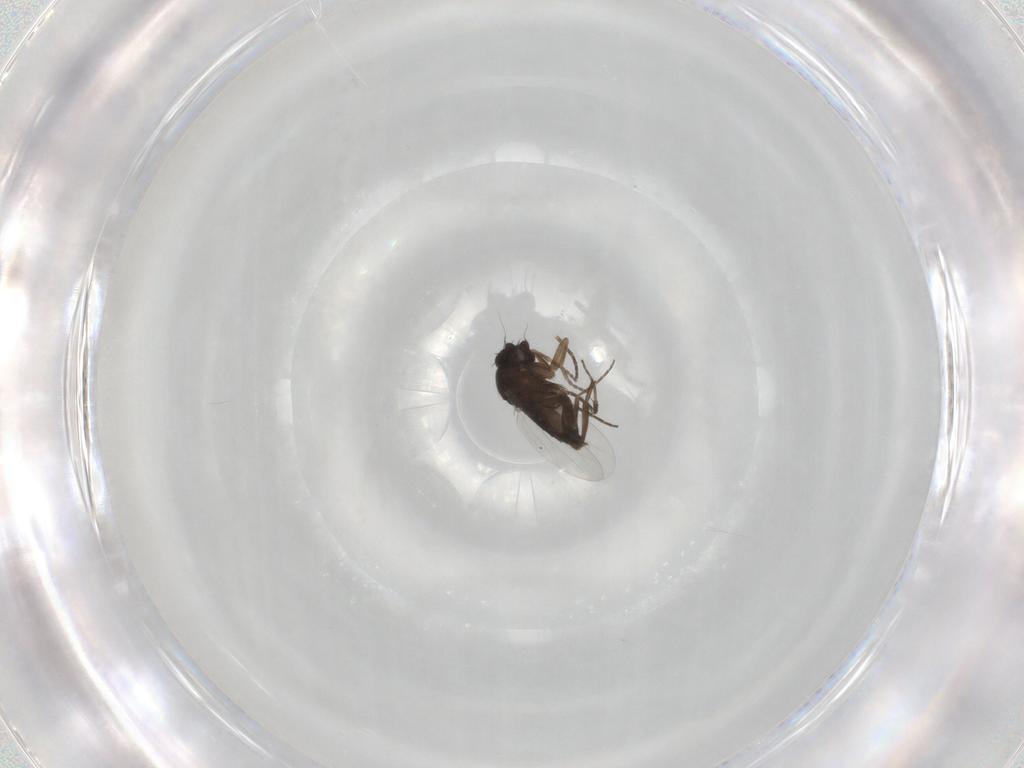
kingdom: Animalia
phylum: Arthropoda
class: Insecta
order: Diptera
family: Phoridae
